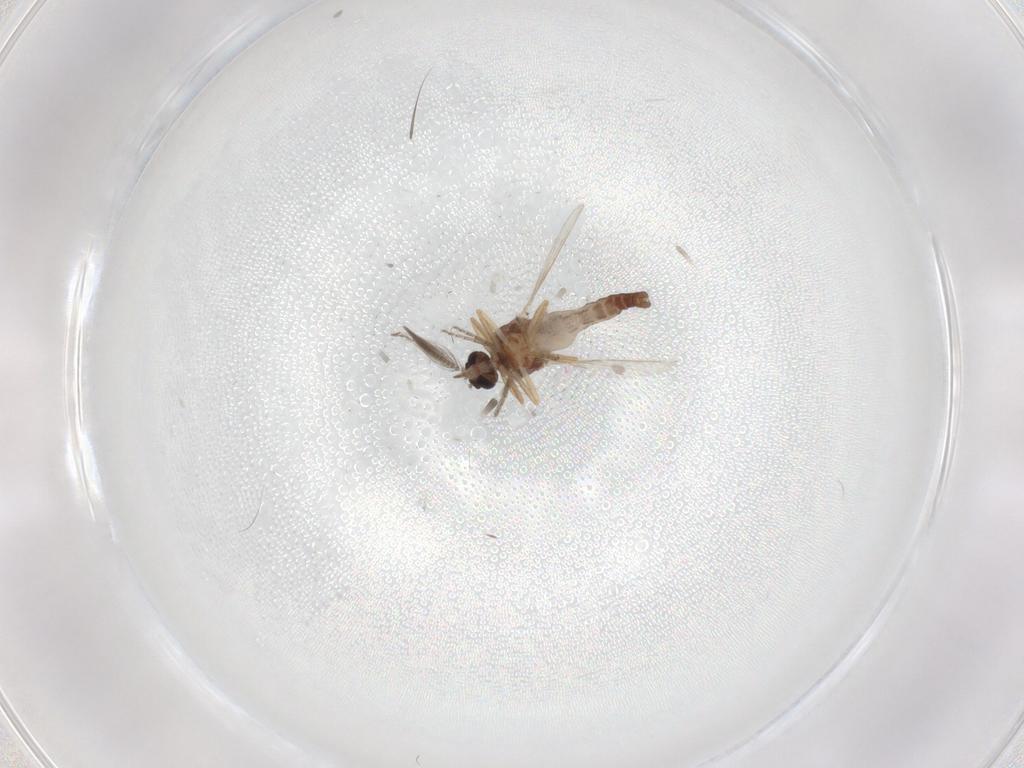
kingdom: Animalia
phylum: Arthropoda
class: Insecta
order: Diptera
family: Ceratopogonidae
